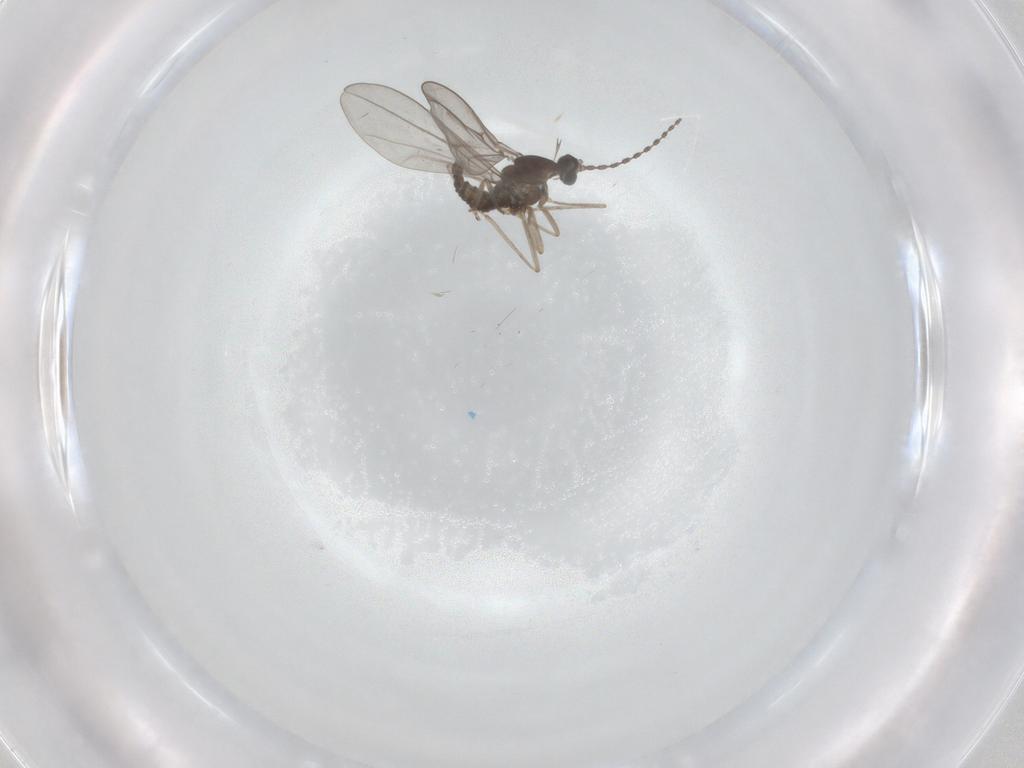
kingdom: Animalia
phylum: Arthropoda
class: Insecta
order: Diptera
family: Cecidomyiidae
